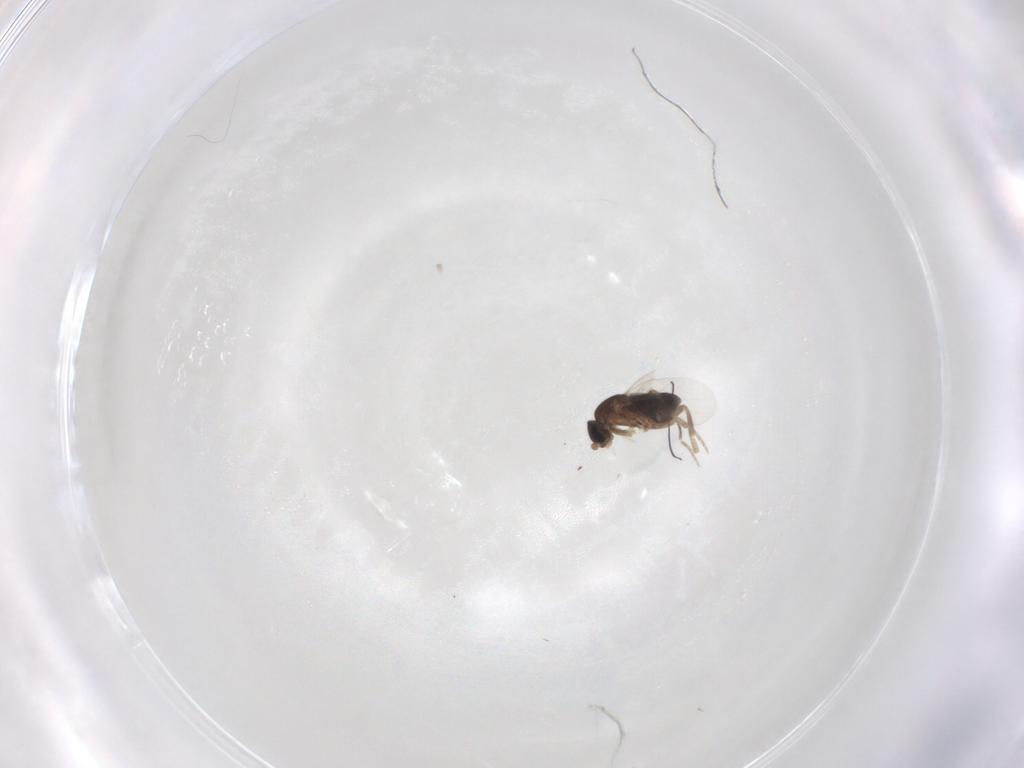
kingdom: Animalia
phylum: Arthropoda
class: Insecta
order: Diptera
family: Phoridae
